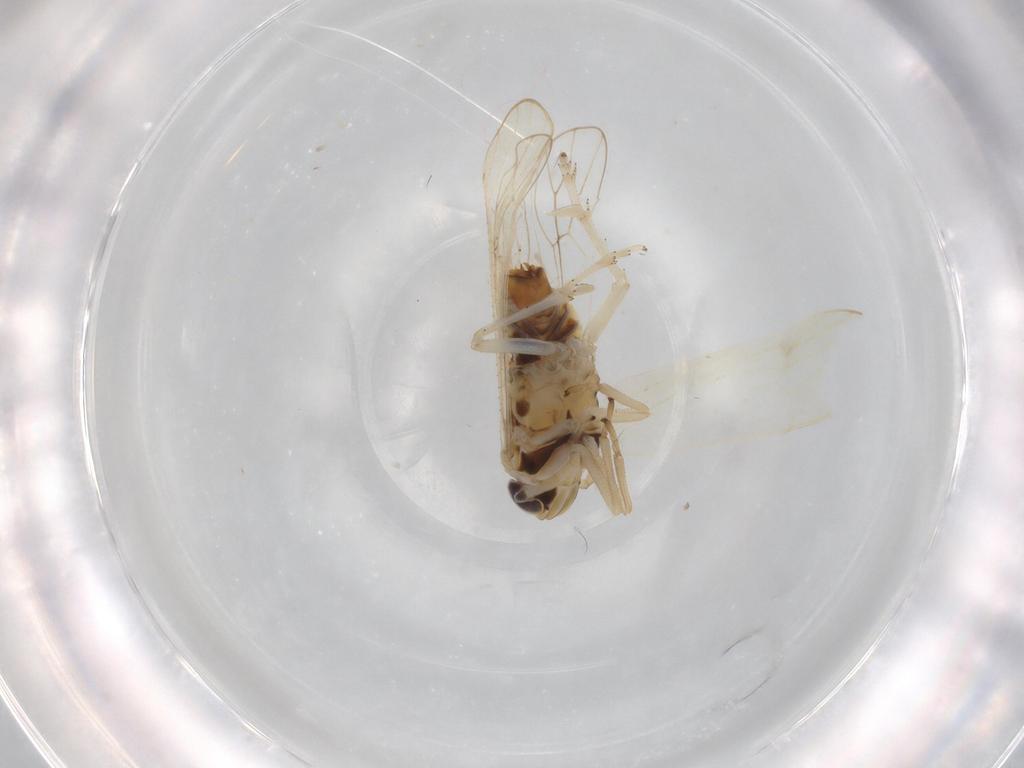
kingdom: Animalia
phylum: Arthropoda
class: Insecta
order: Hemiptera
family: Delphacidae
